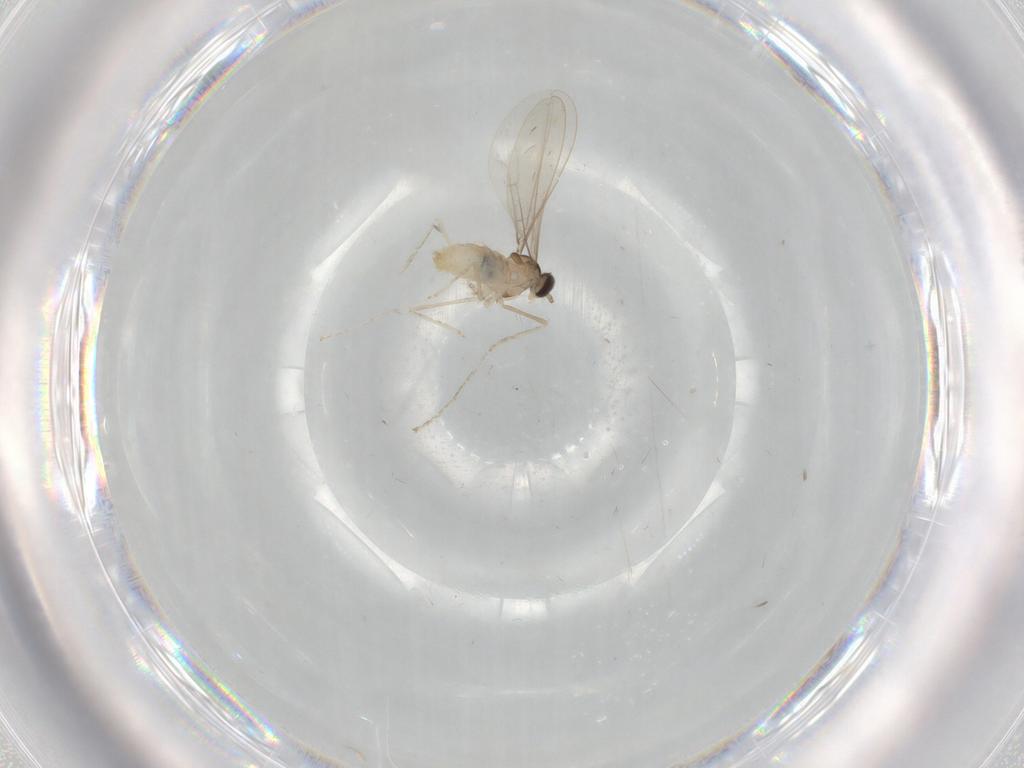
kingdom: Animalia
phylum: Arthropoda
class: Insecta
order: Diptera
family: Cecidomyiidae
